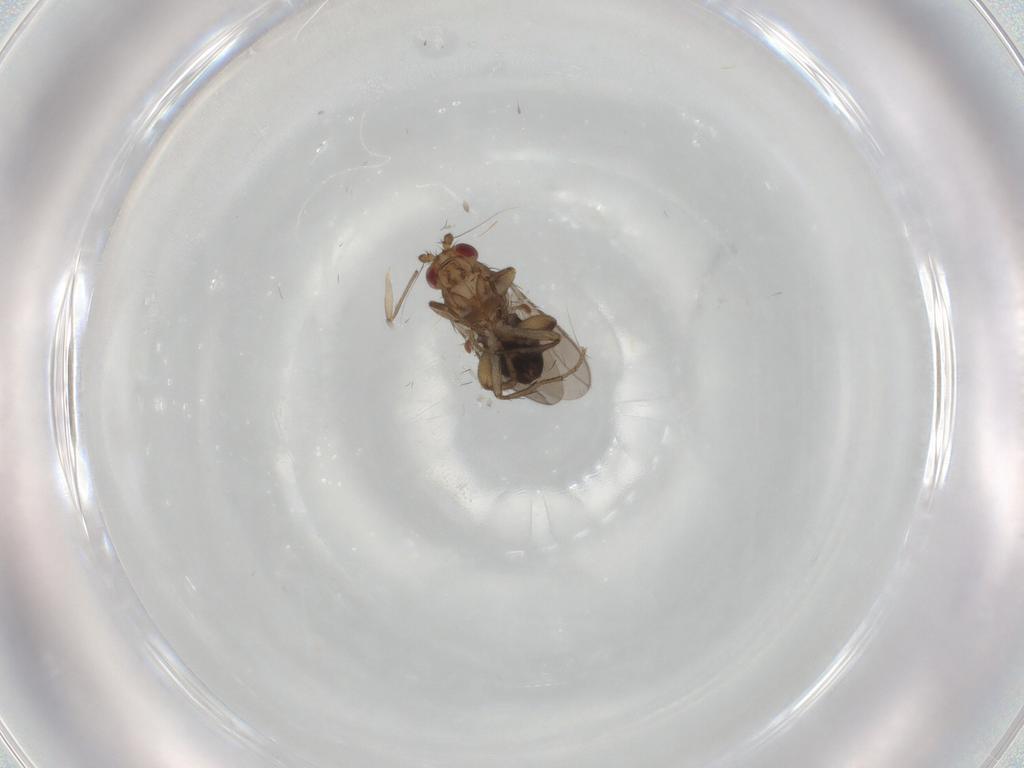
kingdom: Animalia
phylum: Arthropoda
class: Insecta
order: Diptera
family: Sphaeroceridae
